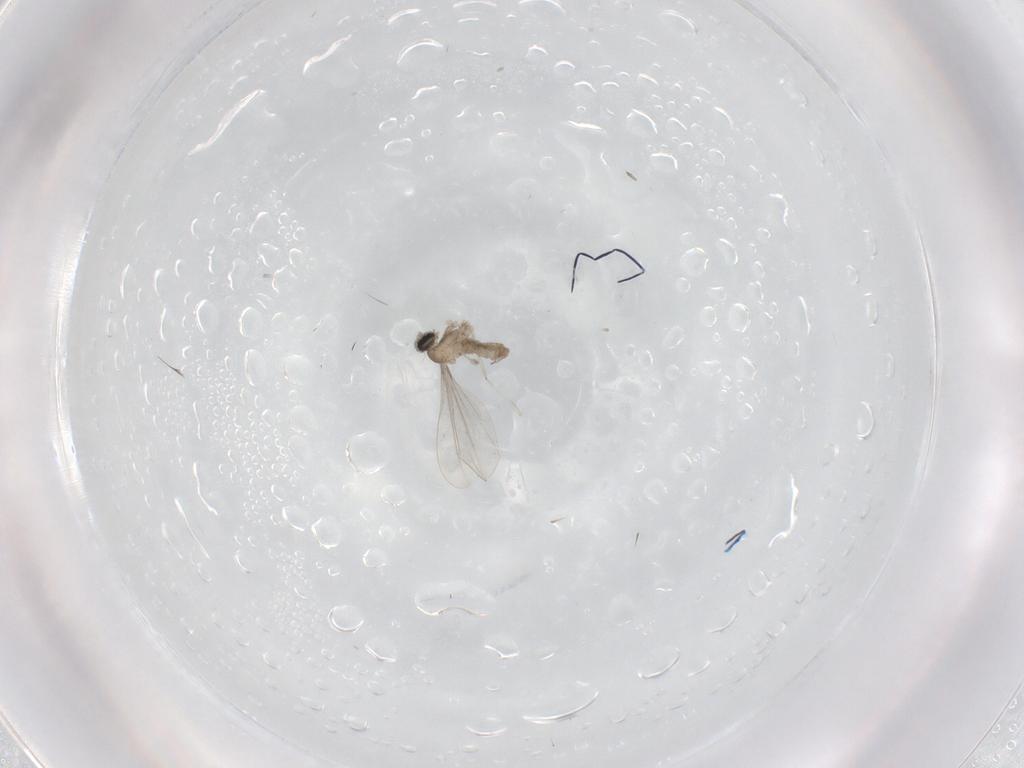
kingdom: Animalia
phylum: Arthropoda
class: Insecta
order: Diptera
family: Cecidomyiidae
